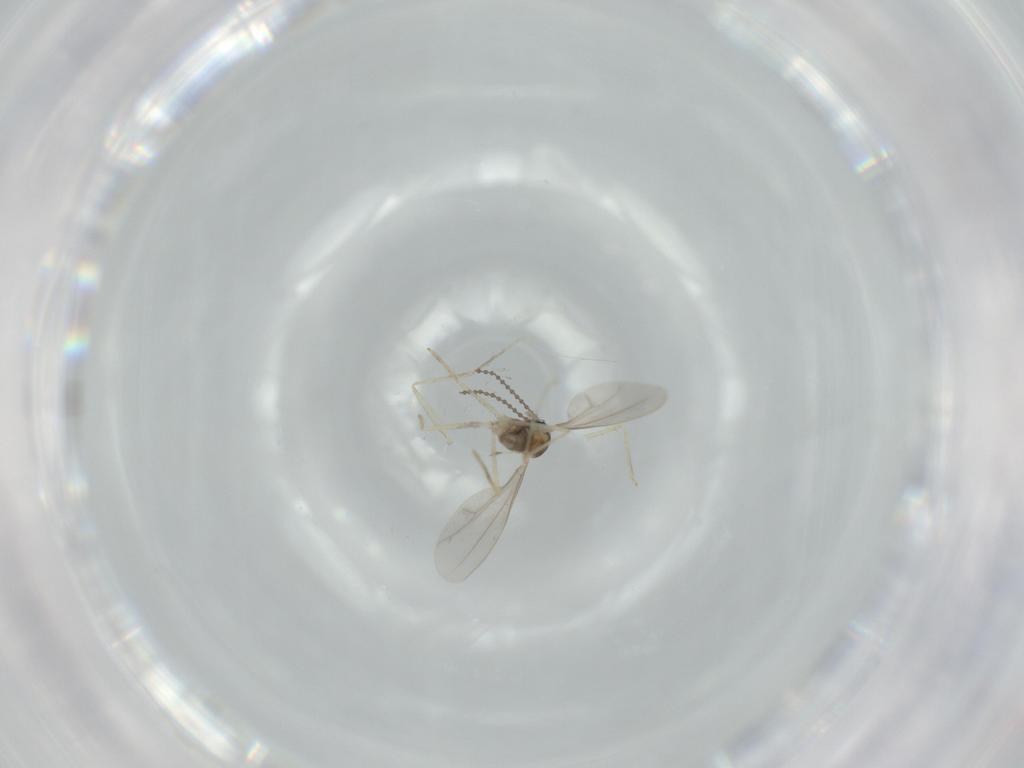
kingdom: Animalia
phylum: Arthropoda
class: Insecta
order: Diptera
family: Cecidomyiidae
